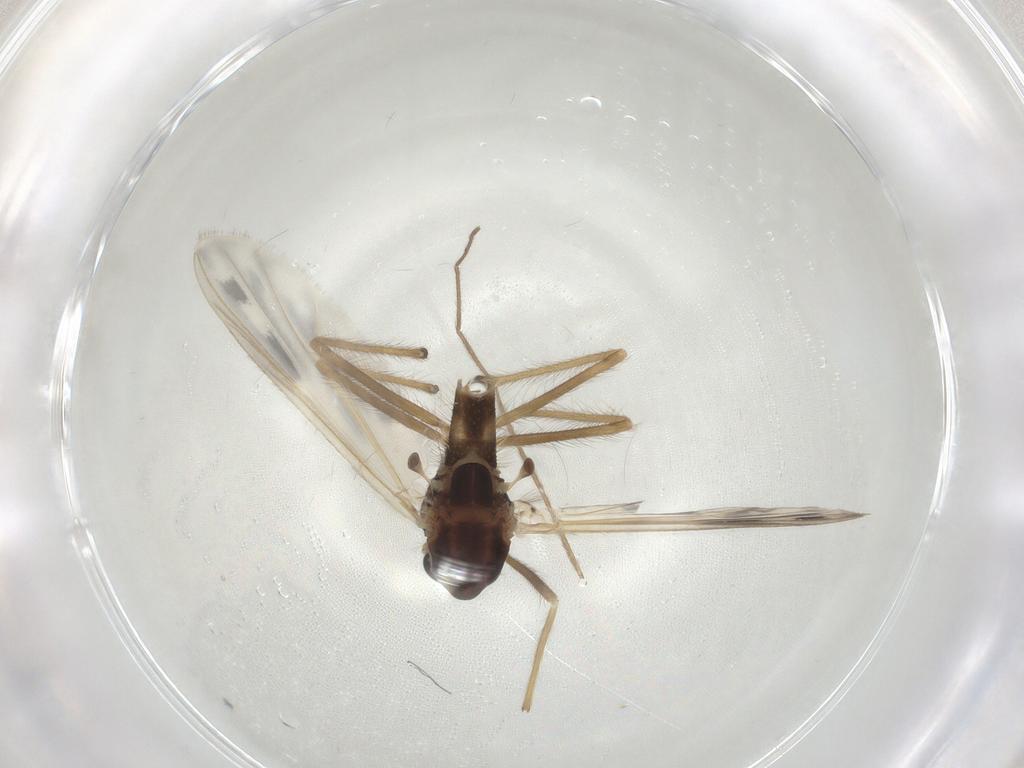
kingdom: Animalia
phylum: Arthropoda
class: Insecta
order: Diptera
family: Chironomidae
